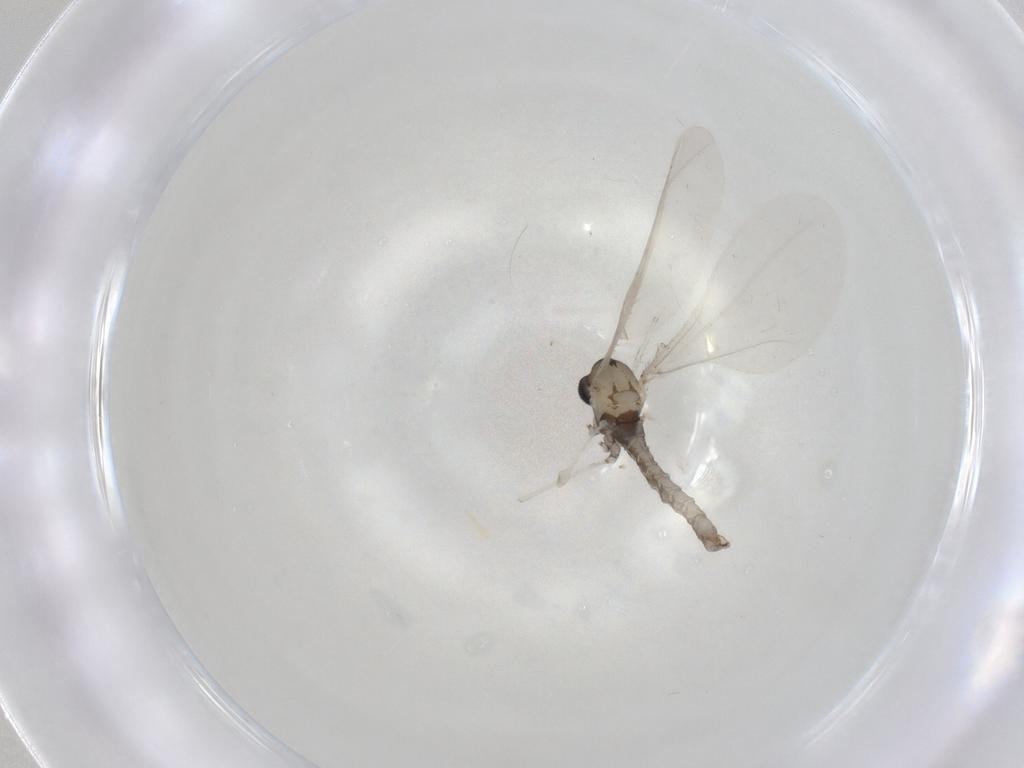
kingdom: Animalia
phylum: Arthropoda
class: Insecta
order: Diptera
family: Cecidomyiidae
